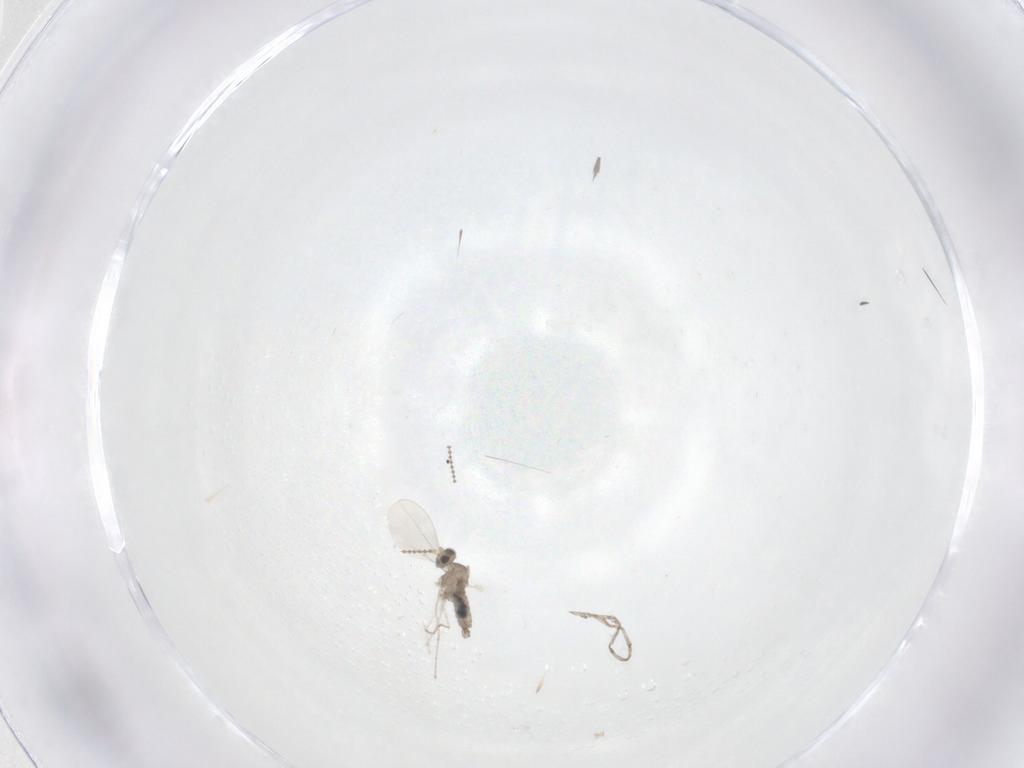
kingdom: Animalia
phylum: Arthropoda
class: Insecta
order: Diptera
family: Cecidomyiidae
